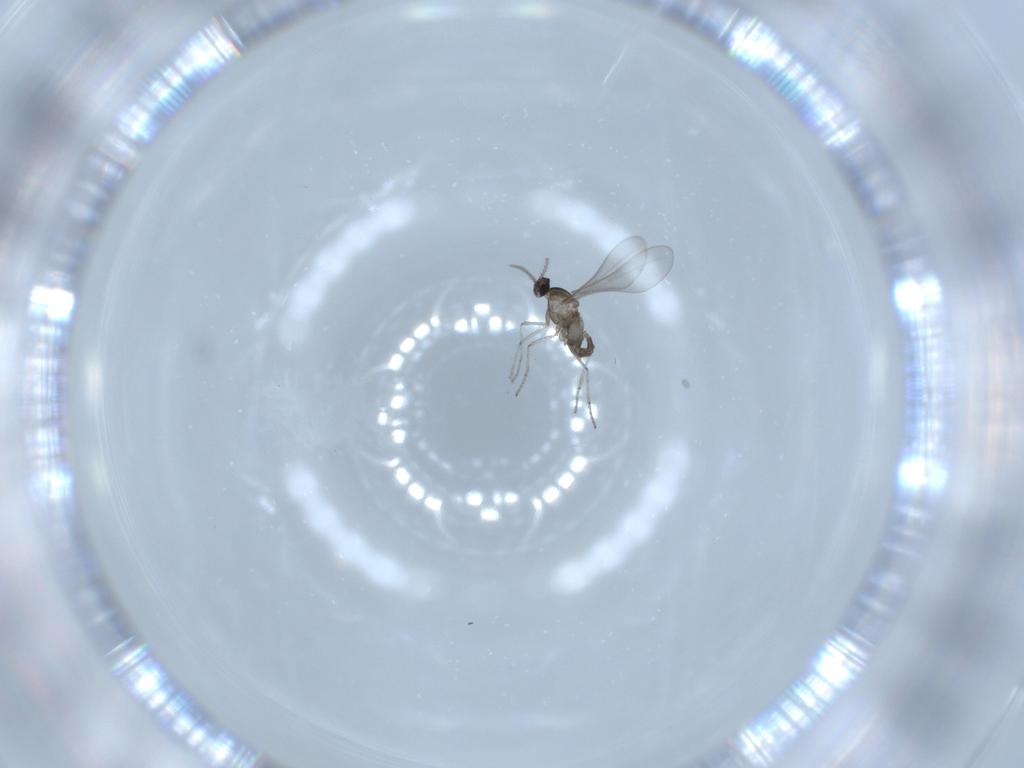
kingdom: Animalia
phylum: Arthropoda
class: Insecta
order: Diptera
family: Cecidomyiidae
